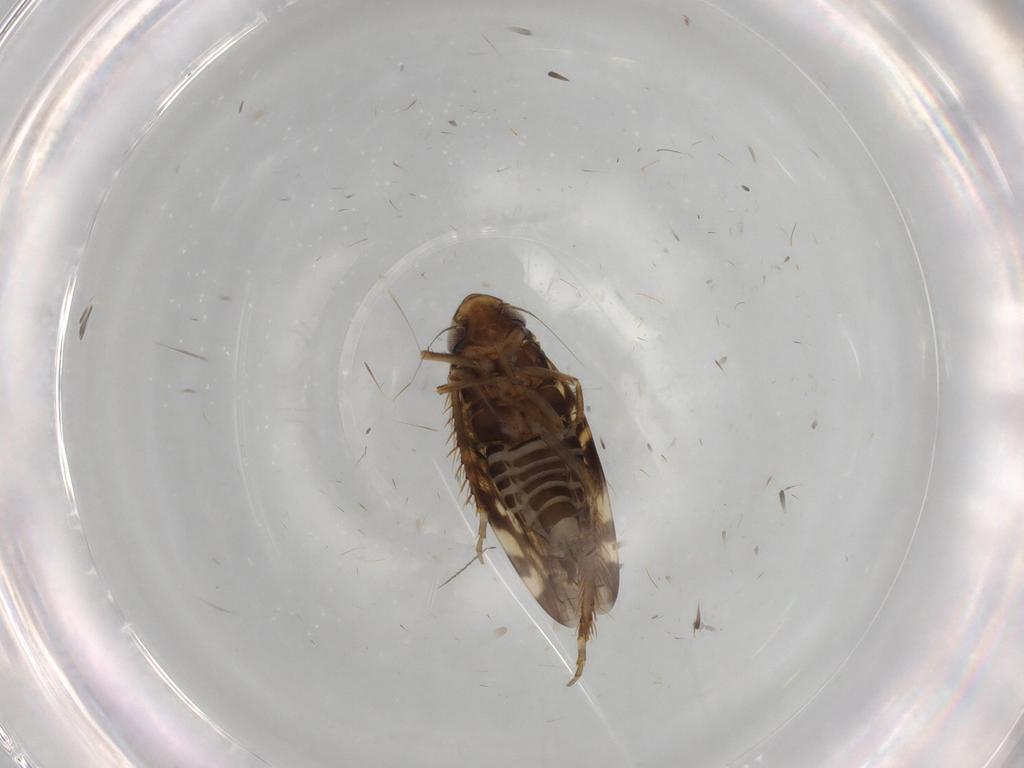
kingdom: Animalia
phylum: Arthropoda
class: Insecta
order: Hemiptera
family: Cicadellidae
